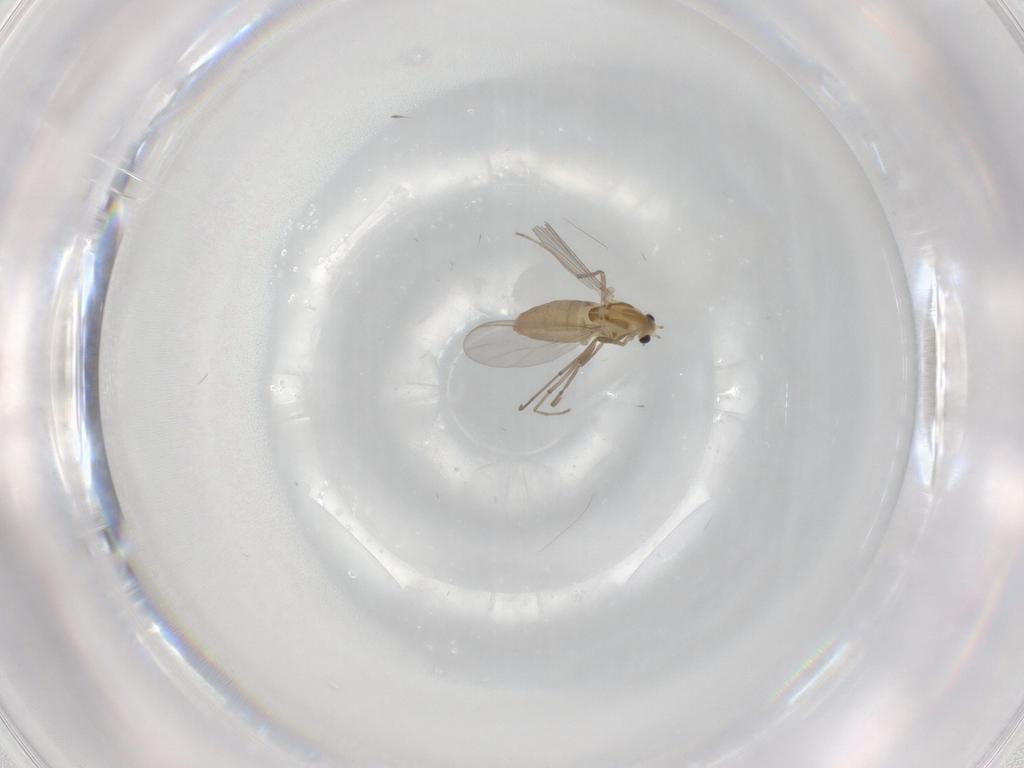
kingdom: Animalia
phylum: Arthropoda
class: Insecta
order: Diptera
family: Chironomidae
